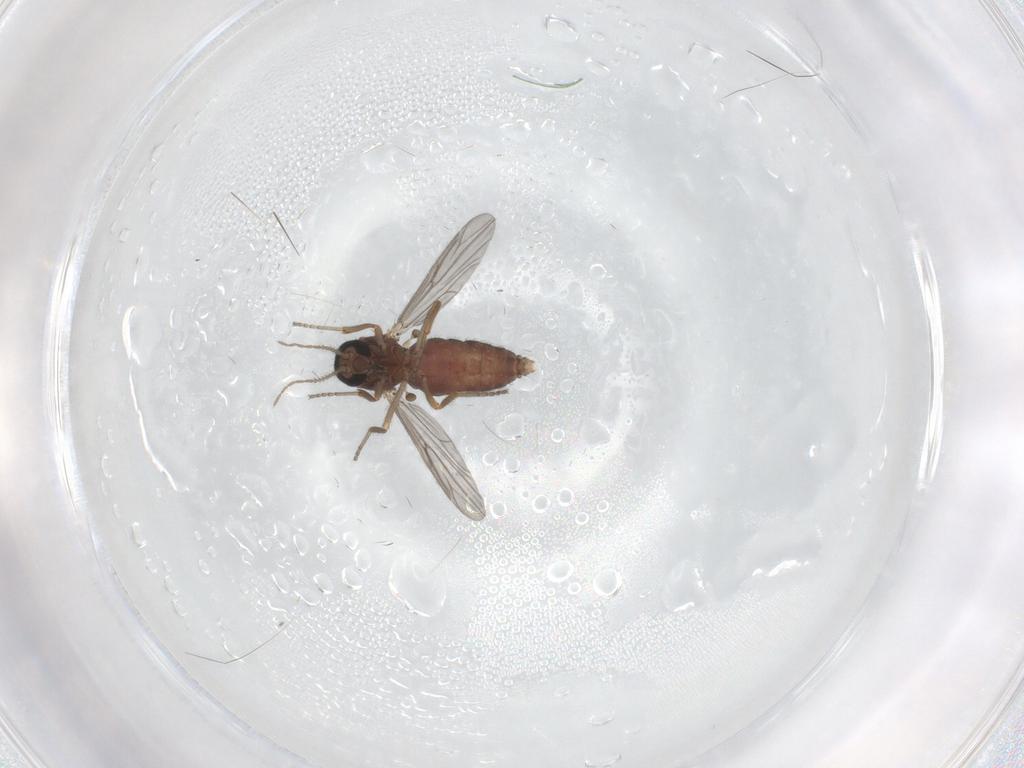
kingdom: Animalia
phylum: Arthropoda
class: Insecta
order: Diptera
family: Ceratopogonidae
